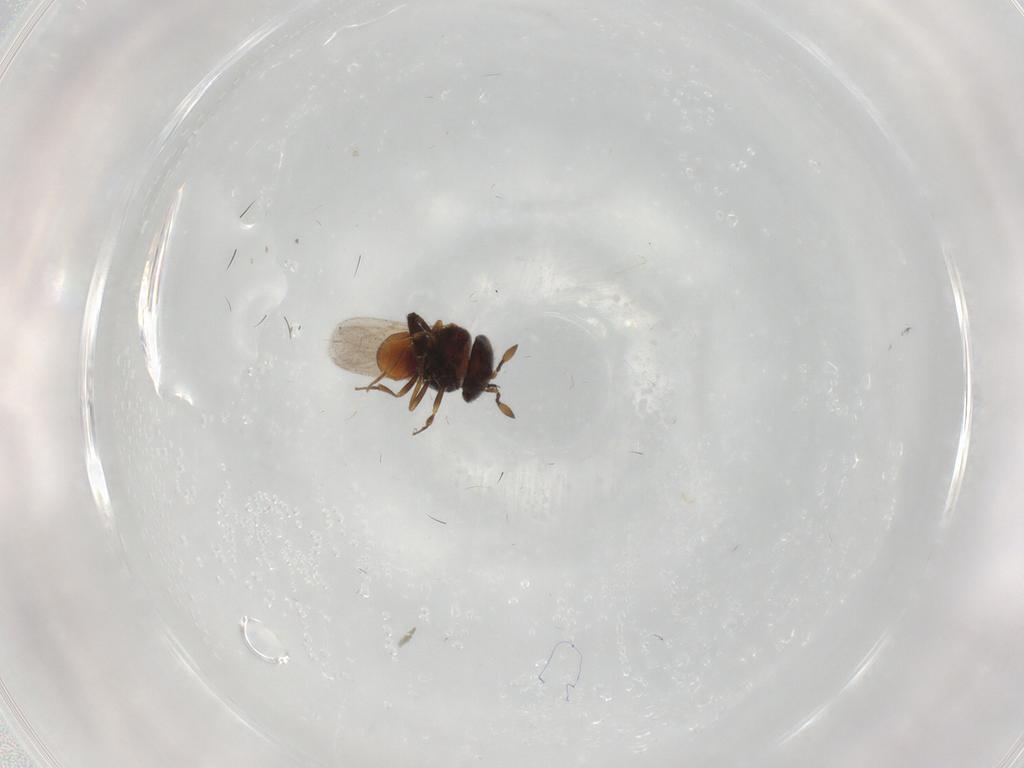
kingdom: Animalia
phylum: Arthropoda
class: Insecta
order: Hymenoptera
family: Scelionidae
